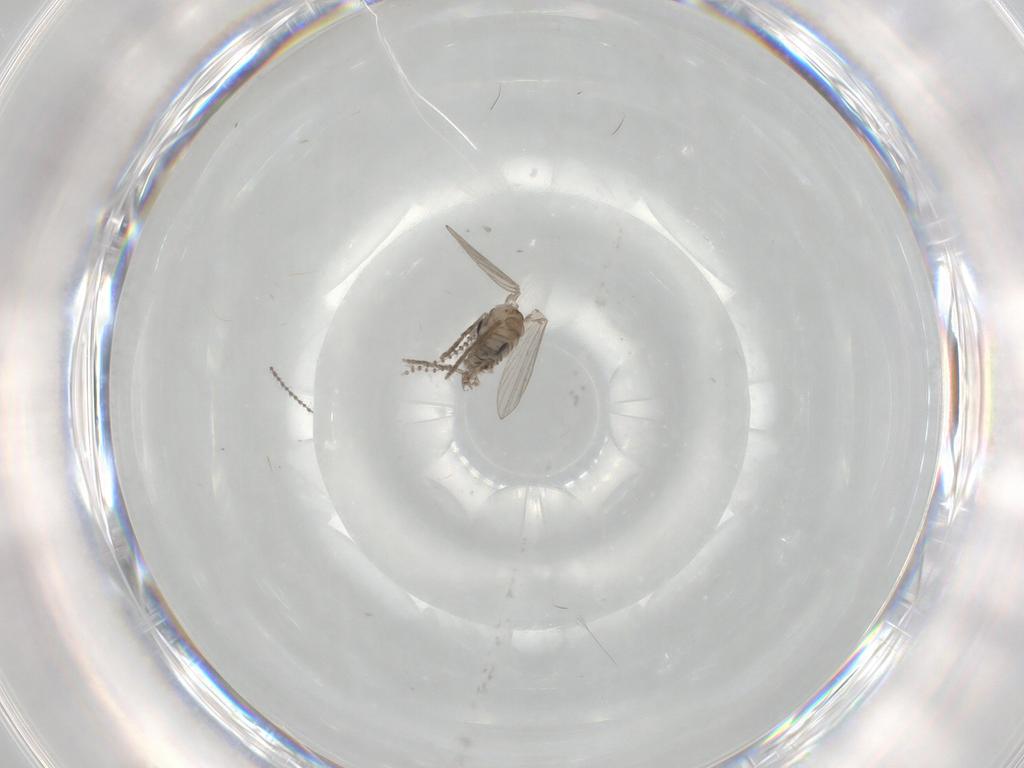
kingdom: Animalia
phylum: Arthropoda
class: Insecta
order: Diptera
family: Psychodidae
